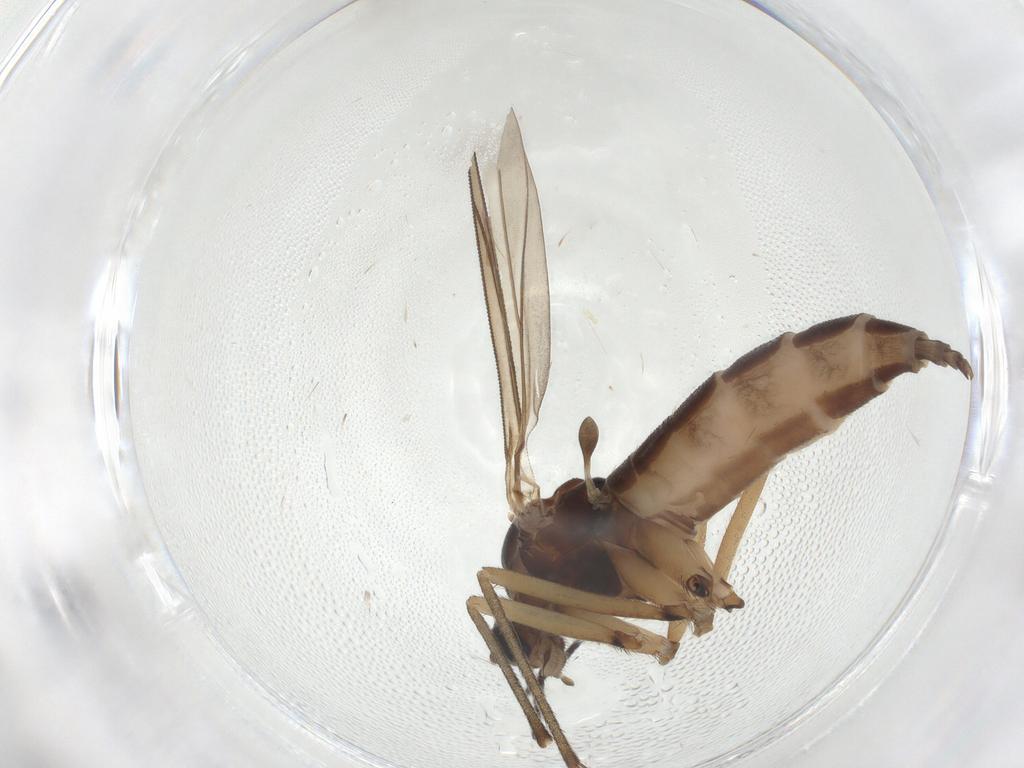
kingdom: Animalia
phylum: Arthropoda
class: Insecta
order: Diptera
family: Sciaridae
